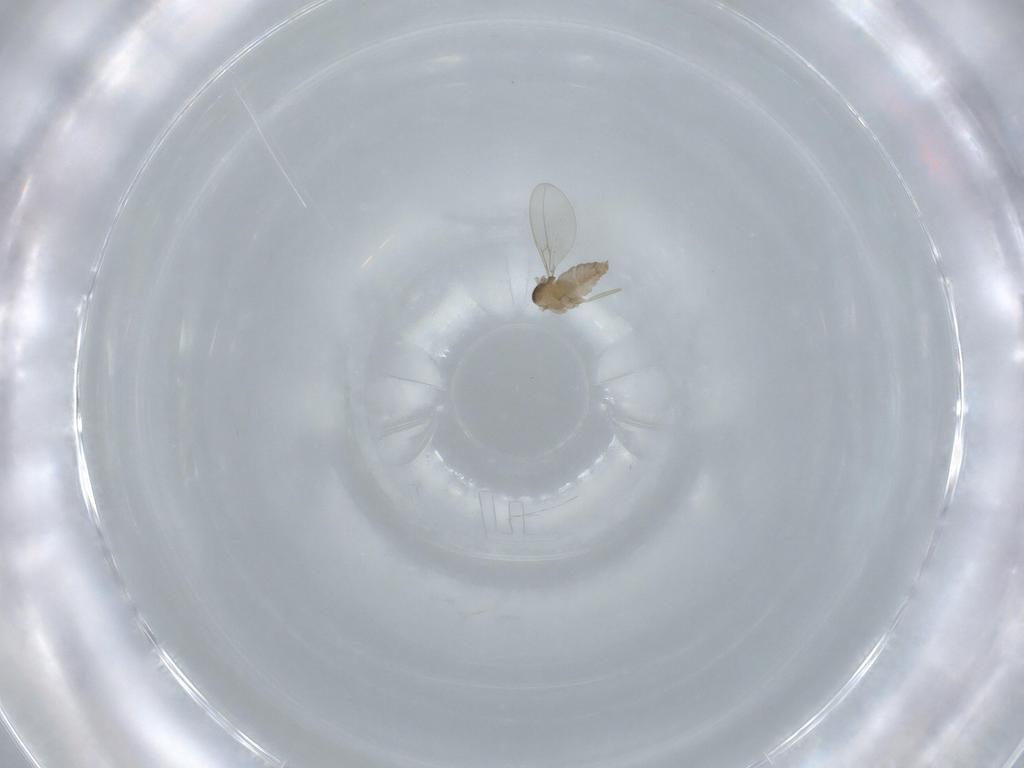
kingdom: Animalia
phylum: Arthropoda
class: Insecta
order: Diptera
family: Cecidomyiidae
